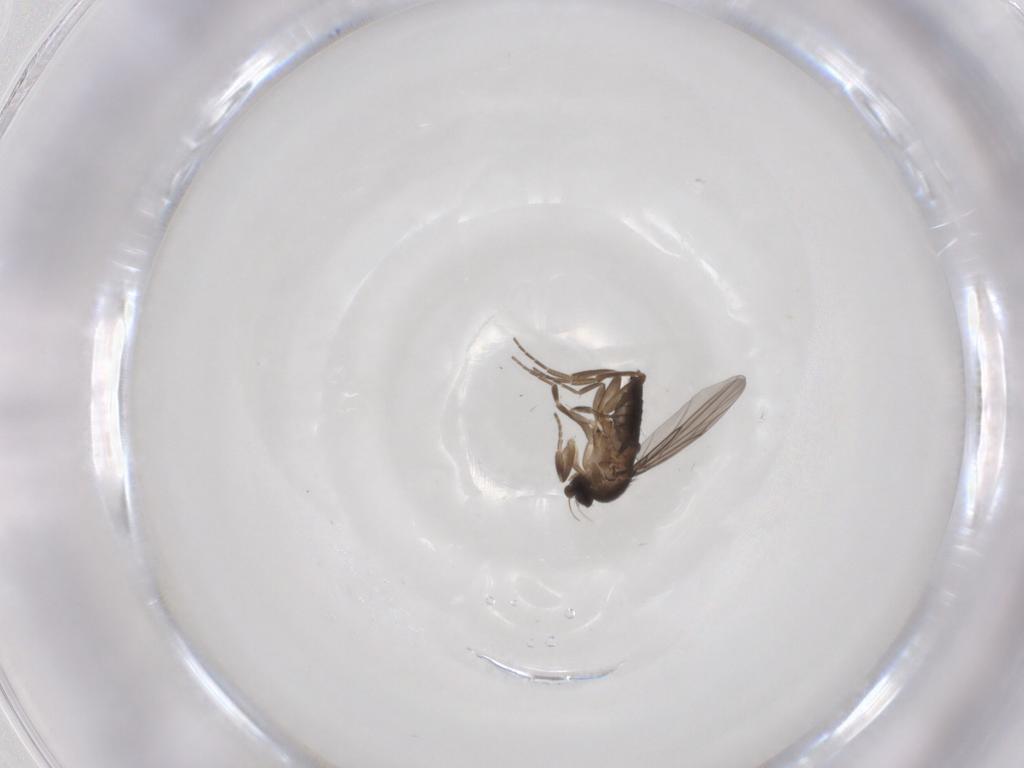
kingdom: Animalia
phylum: Arthropoda
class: Insecta
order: Diptera
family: Phoridae
